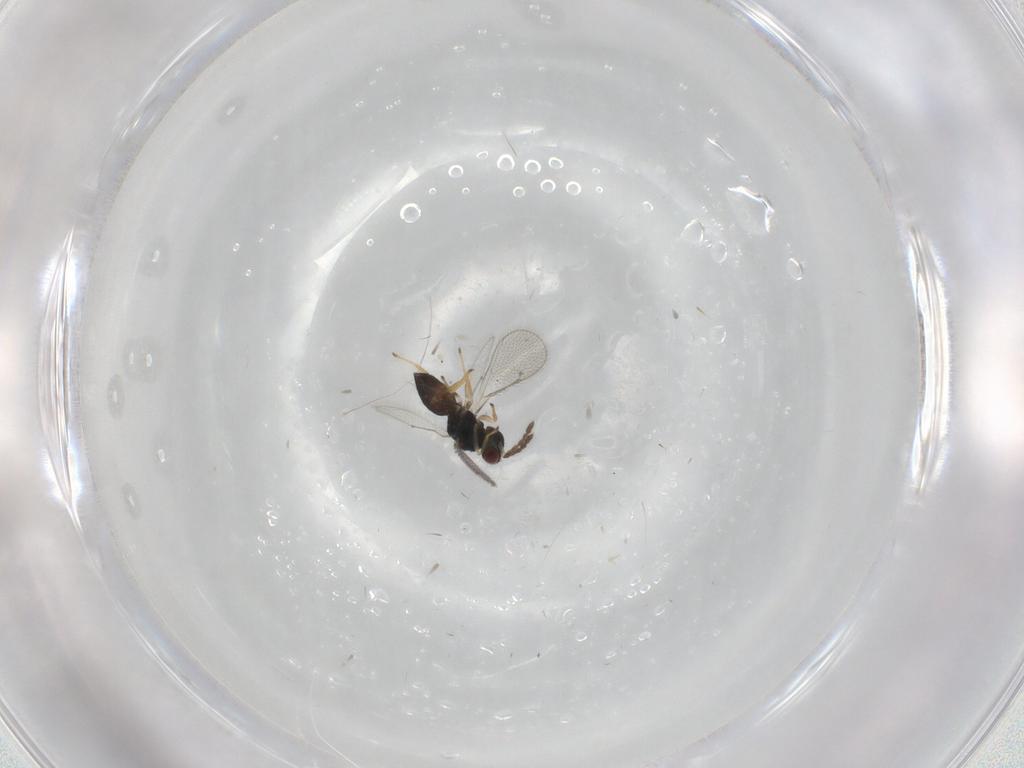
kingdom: Animalia
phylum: Arthropoda
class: Insecta
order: Hymenoptera
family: Eulophidae
